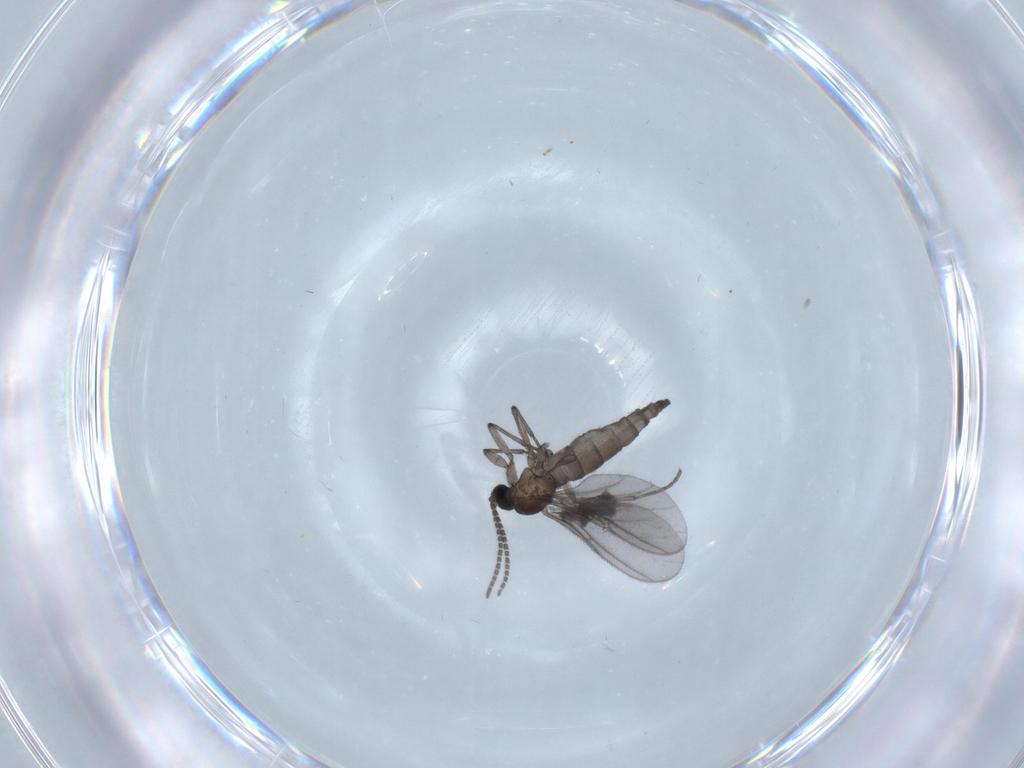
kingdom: Animalia
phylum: Arthropoda
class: Insecta
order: Diptera
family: Sciaridae
